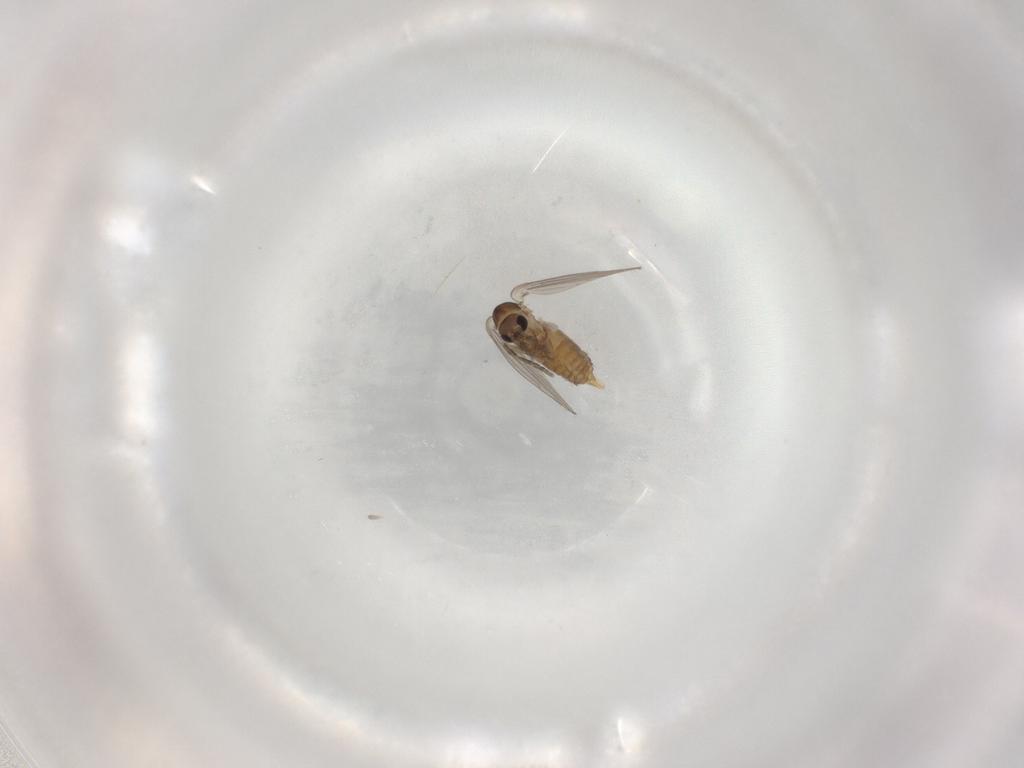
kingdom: Animalia
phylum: Arthropoda
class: Insecta
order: Diptera
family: Psychodidae
